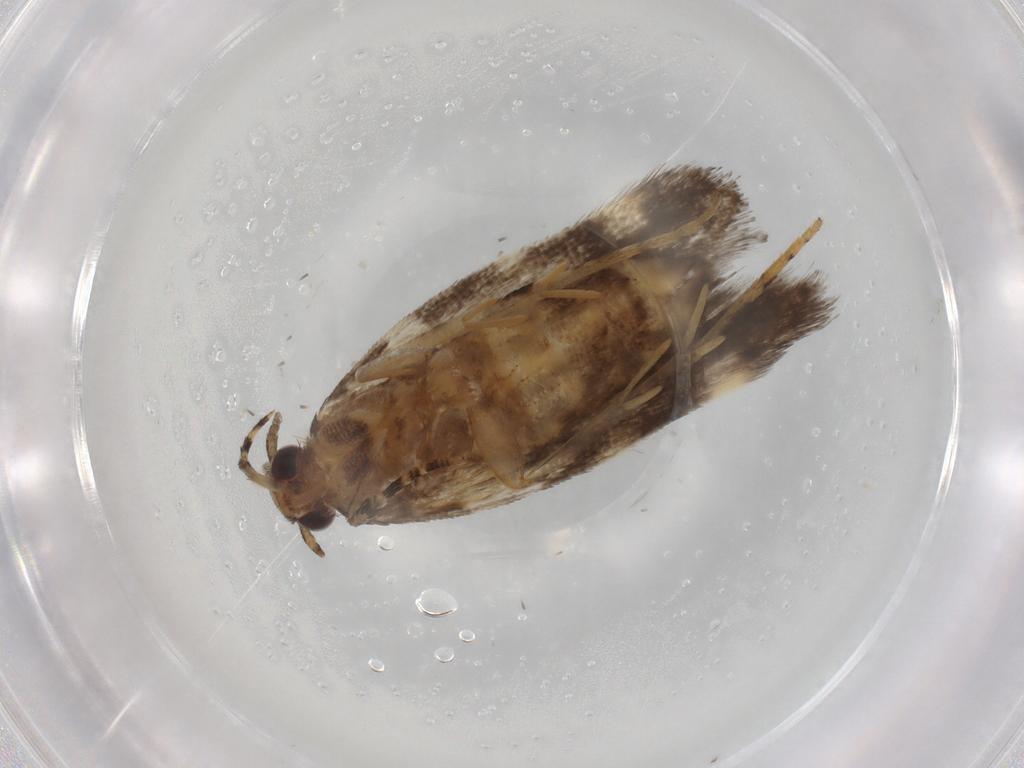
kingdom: Animalia
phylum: Arthropoda
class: Insecta
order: Lepidoptera
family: Gelechiidae
